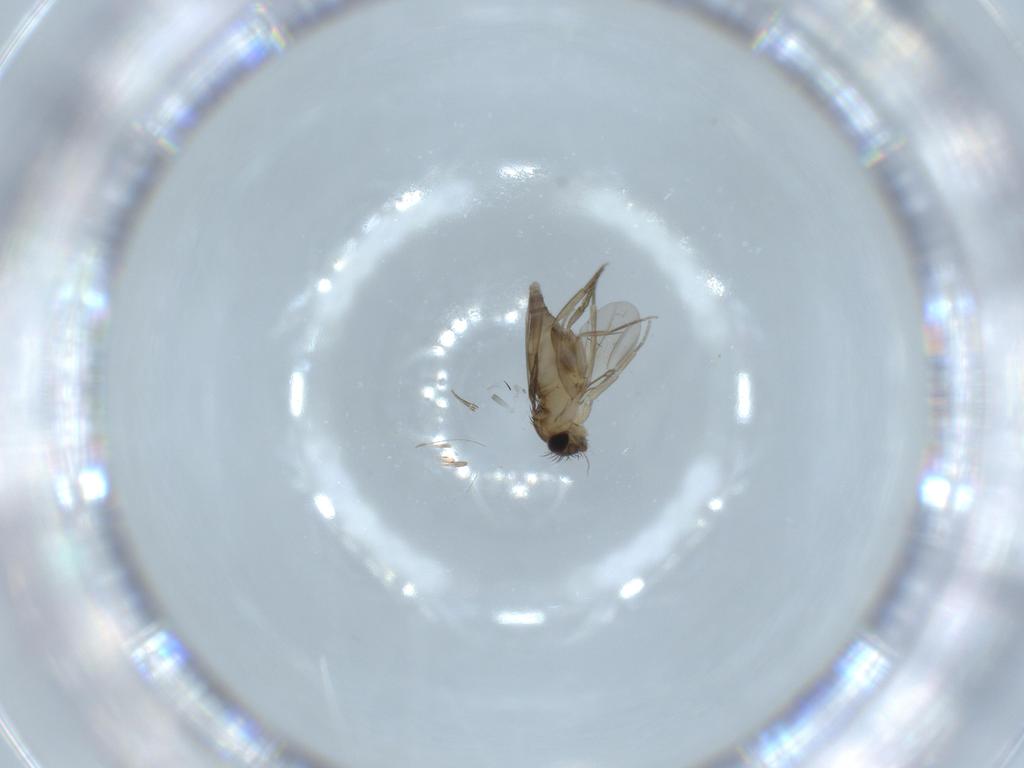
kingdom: Animalia
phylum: Arthropoda
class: Insecta
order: Diptera
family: Phoridae
